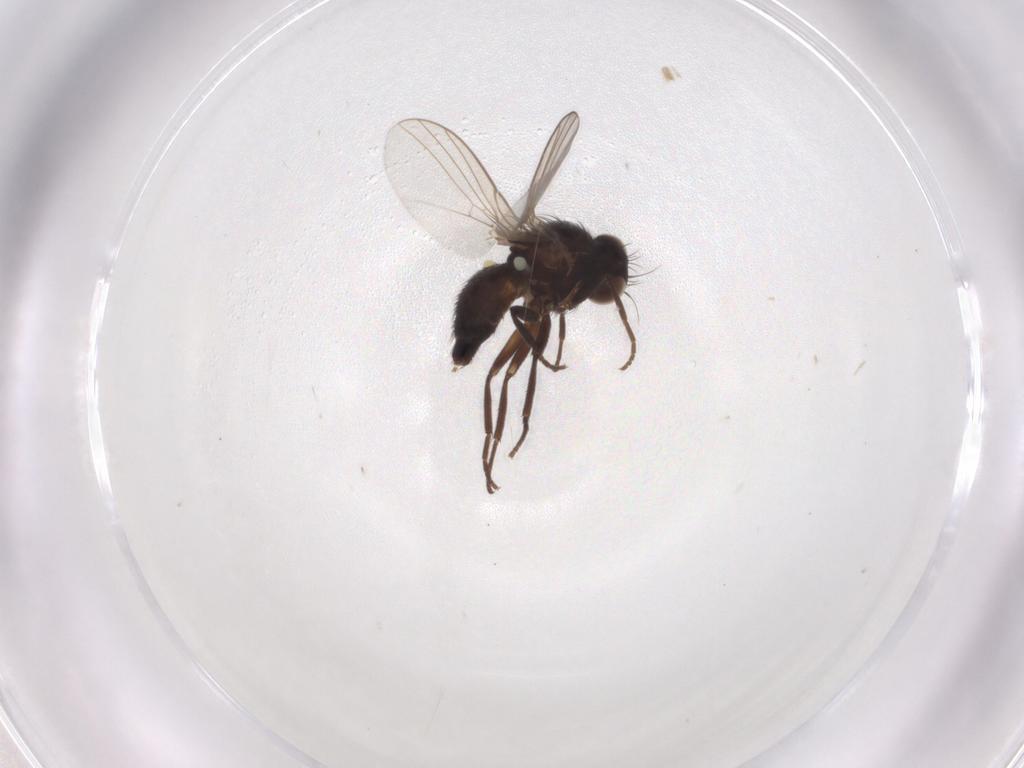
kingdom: Animalia
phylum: Arthropoda
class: Insecta
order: Diptera
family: Agromyzidae
